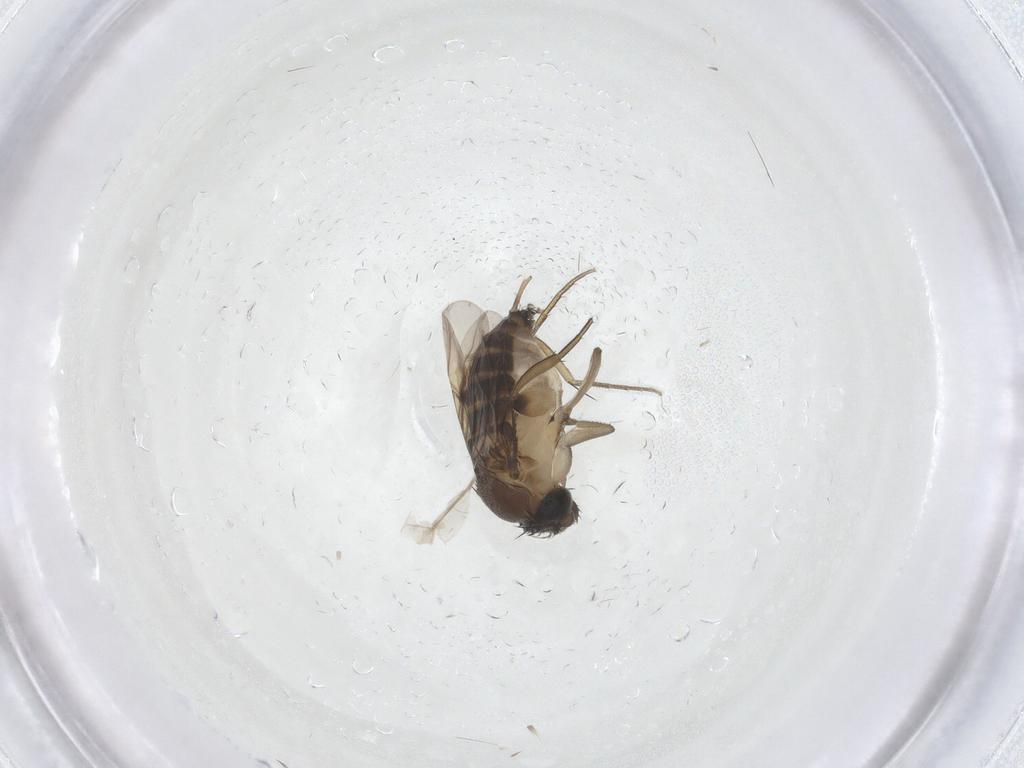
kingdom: Animalia
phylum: Arthropoda
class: Insecta
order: Diptera
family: Phoridae
